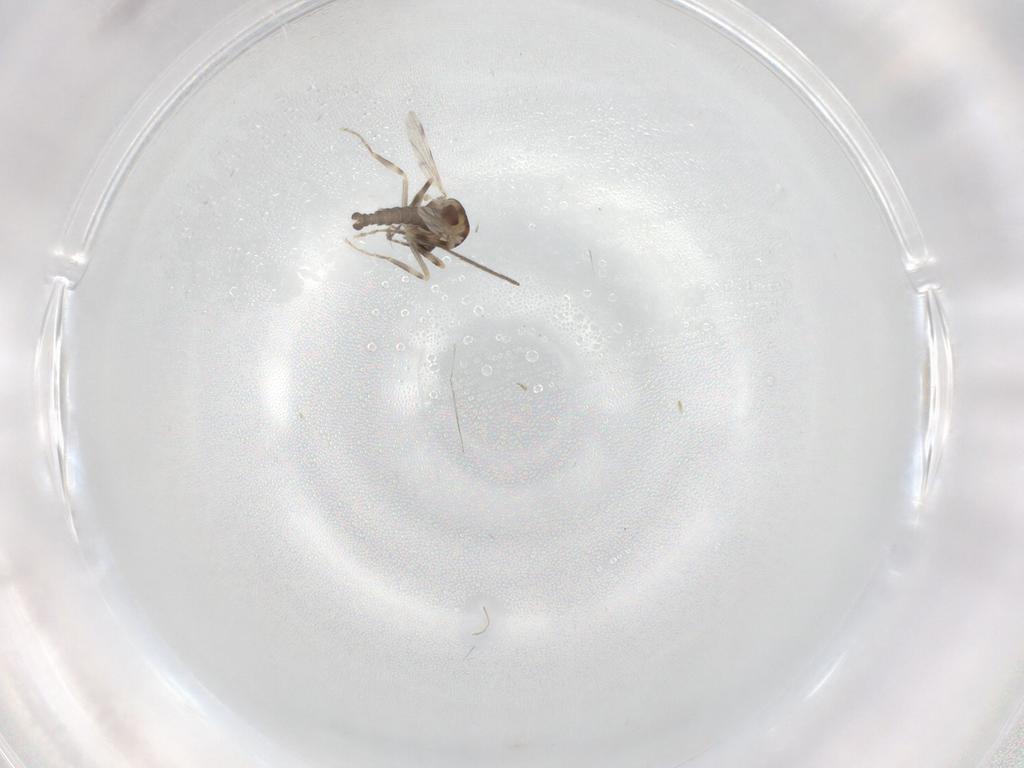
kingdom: Animalia
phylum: Arthropoda
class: Insecta
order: Diptera
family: Ceratopogonidae
